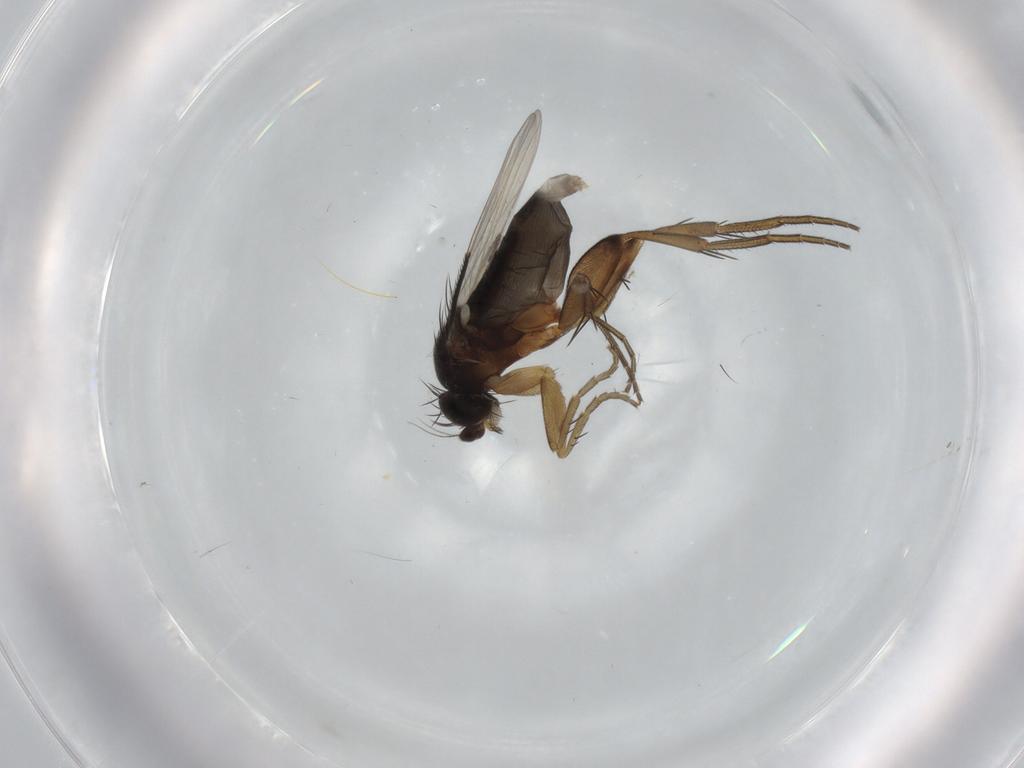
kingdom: Animalia
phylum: Arthropoda
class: Insecta
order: Diptera
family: Phoridae
